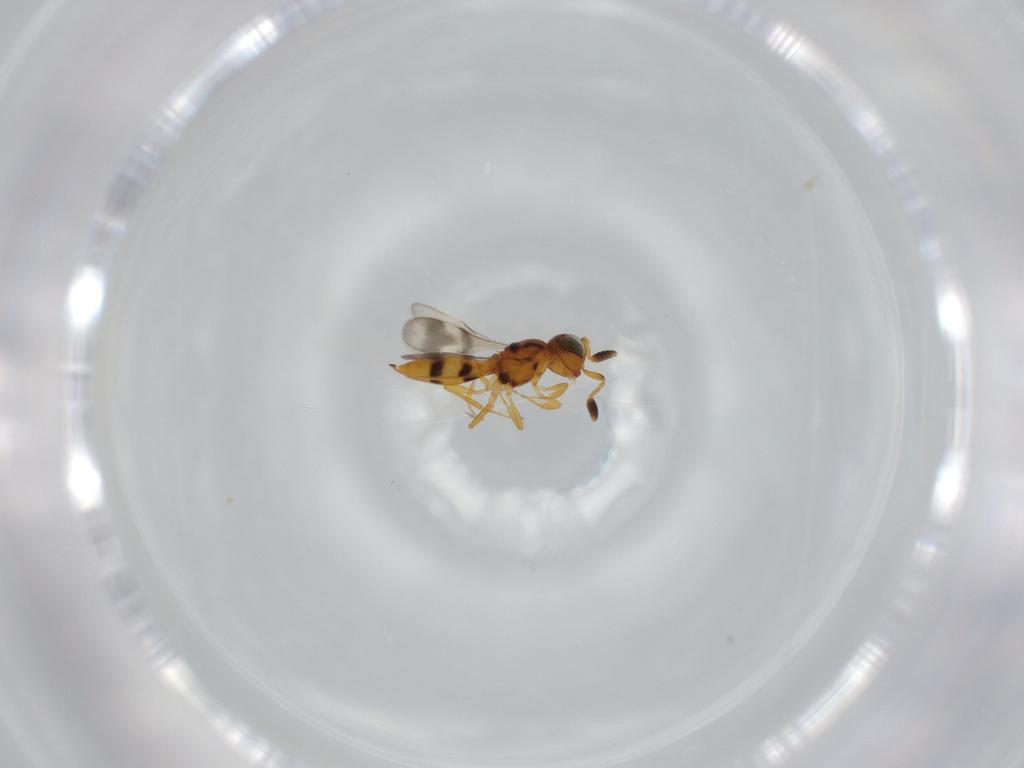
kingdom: Animalia
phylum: Arthropoda
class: Insecta
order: Hymenoptera
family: Scelionidae
